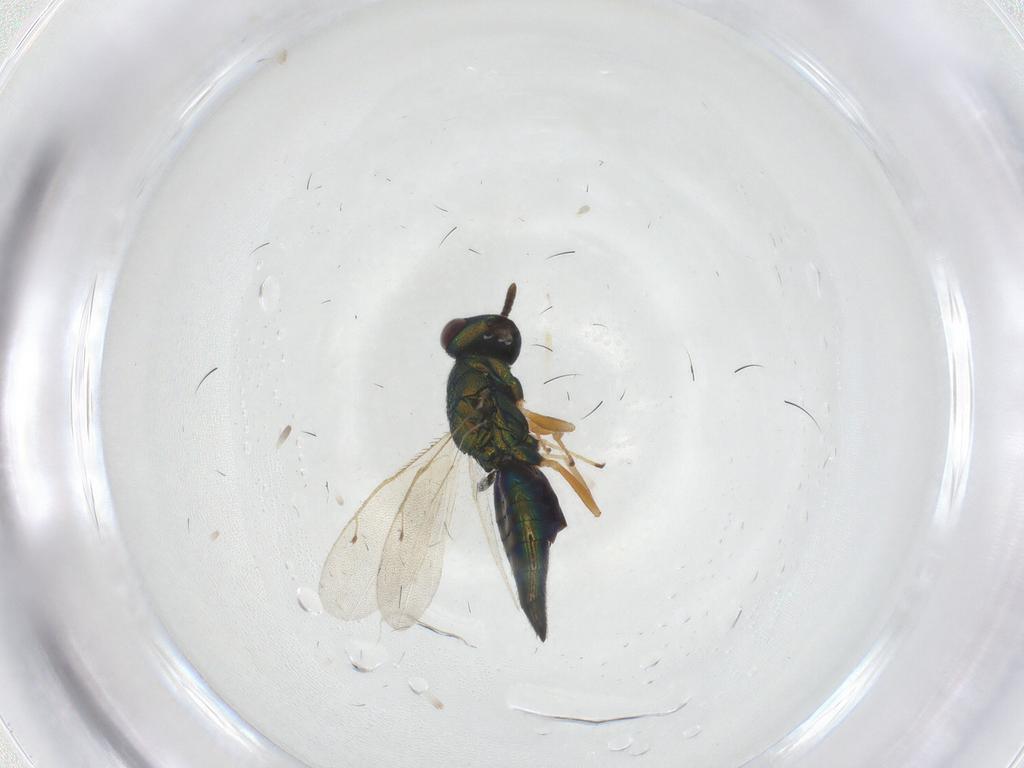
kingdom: Animalia
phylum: Arthropoda
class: Insecta
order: Hymenoptera
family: Pteromalidae
